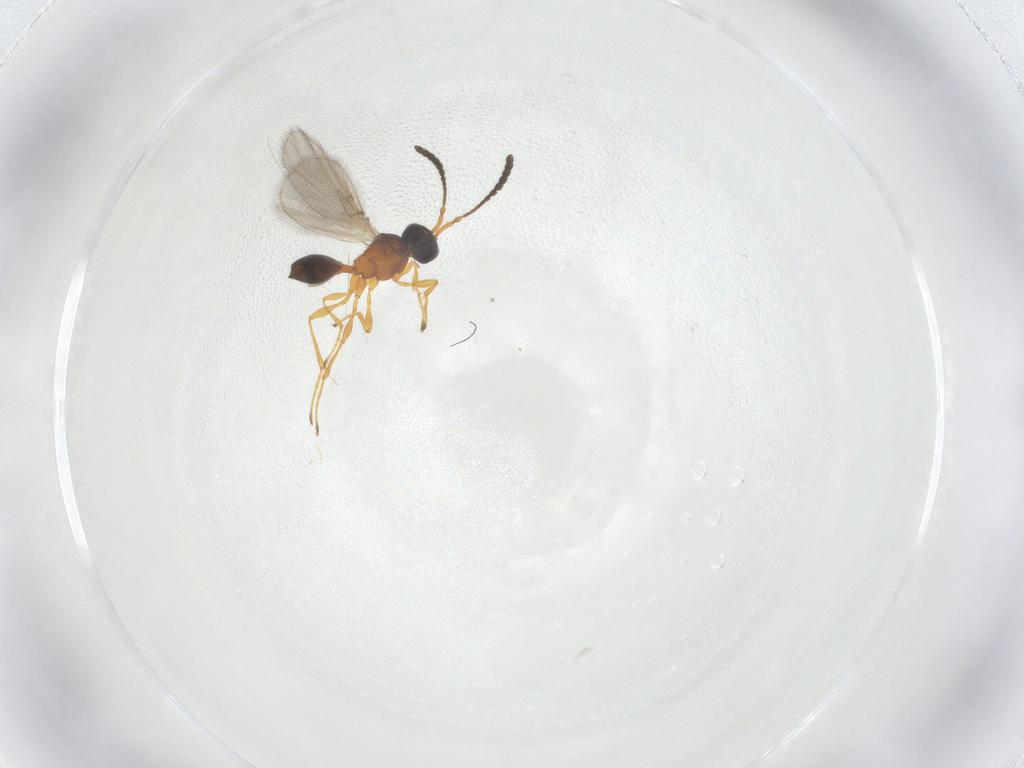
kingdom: Animalia
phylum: Arthropoda
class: Insecta
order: Hymenoptera
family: Diapriidae
